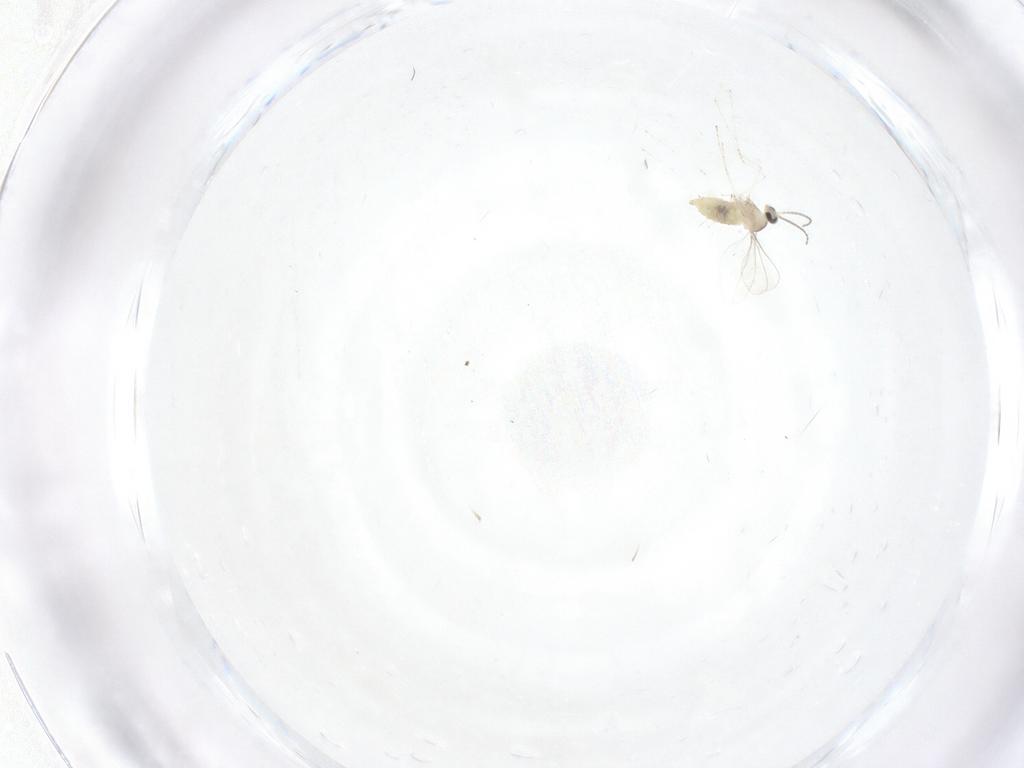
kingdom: Animalia
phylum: Arthropoda
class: Insecta
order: Diptera
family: Cecidomyiidae
